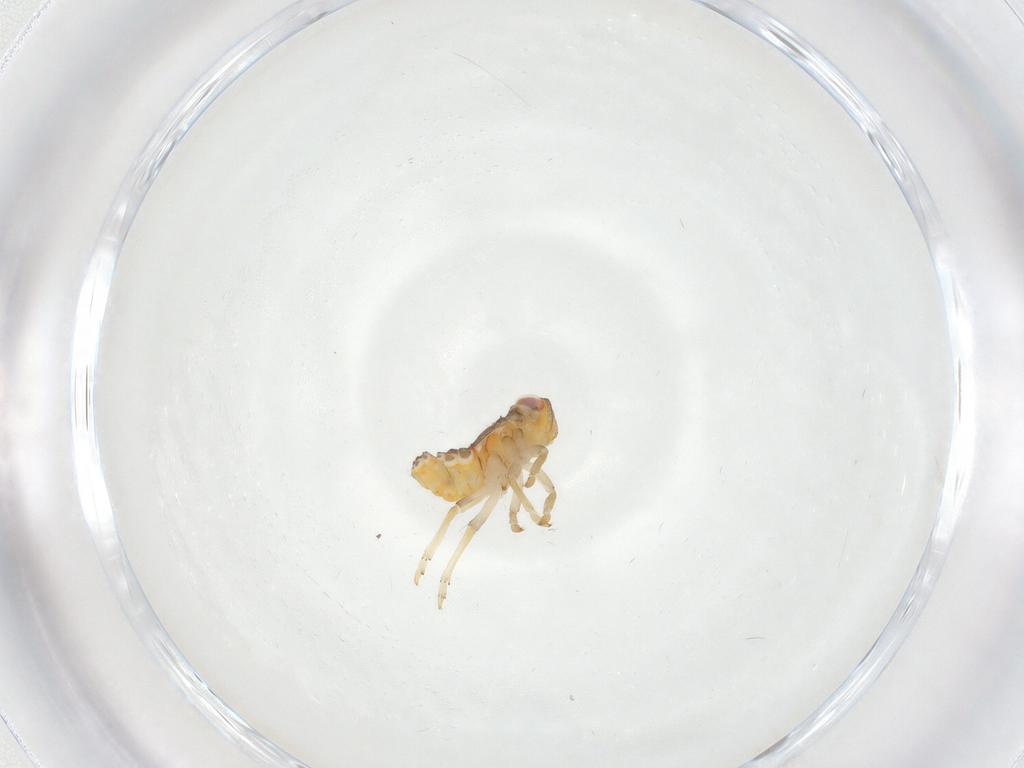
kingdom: Animalia
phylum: Arthropoda
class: Insecta
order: Hemiptera
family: Issidae
